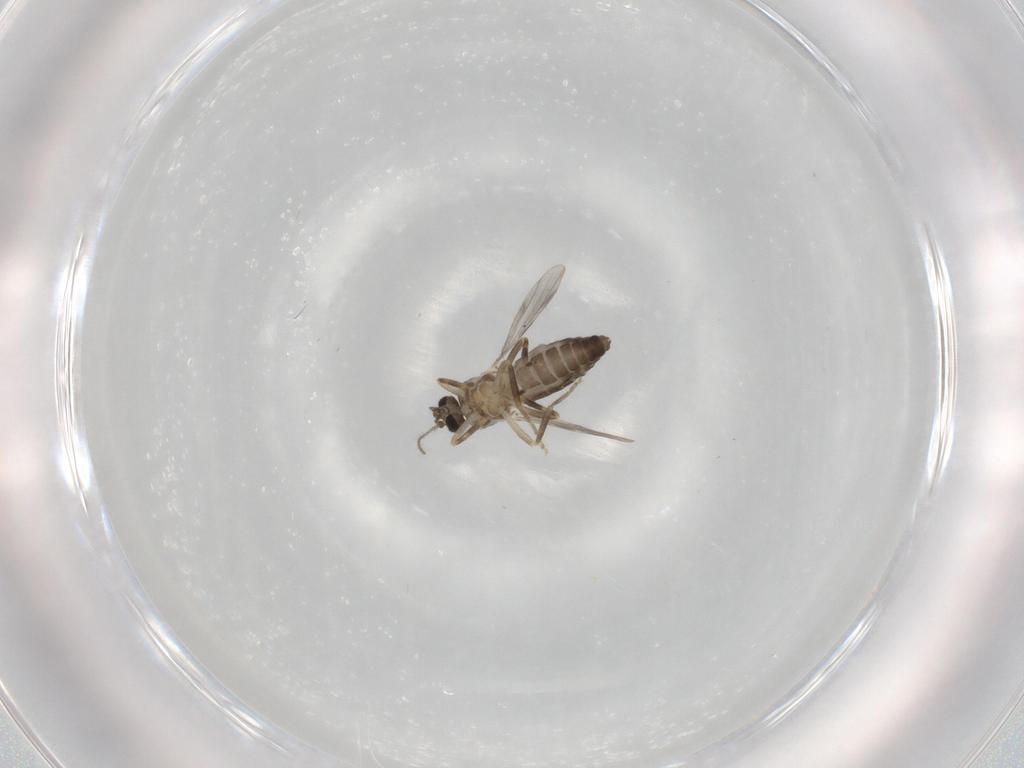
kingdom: Animalia
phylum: Arthropoda
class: Insecta
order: Diptera
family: Ceratopogonidae
